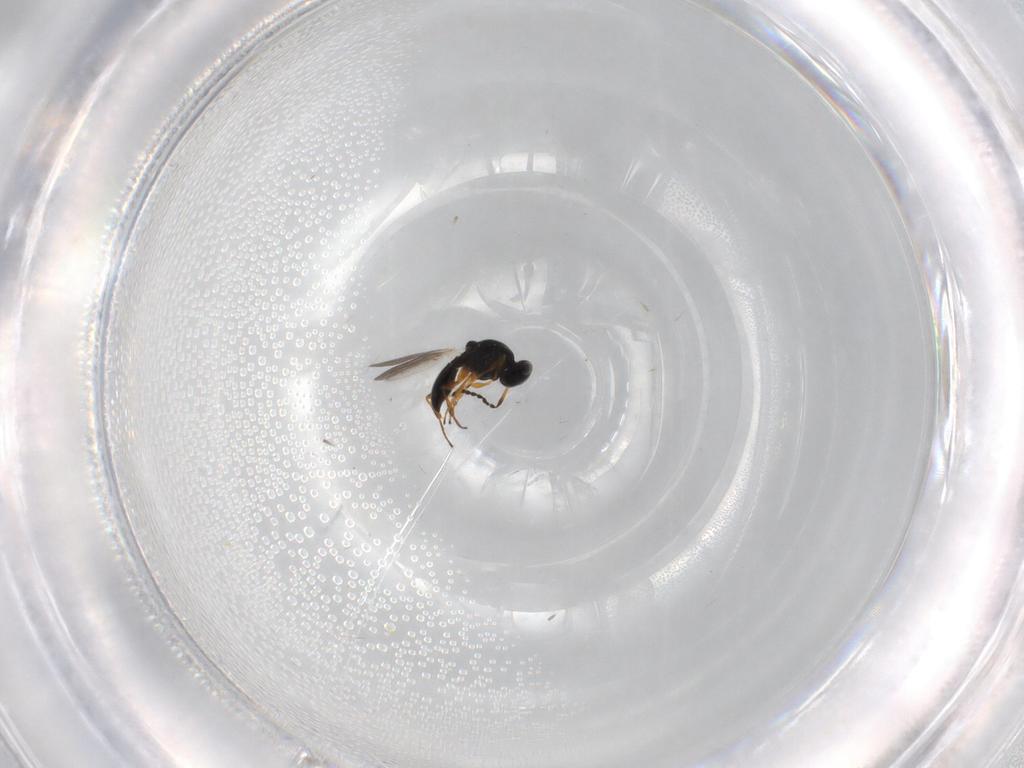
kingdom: Animalia
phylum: Arthropoda
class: Insecta
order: Hymenoptera
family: Platygastridae
